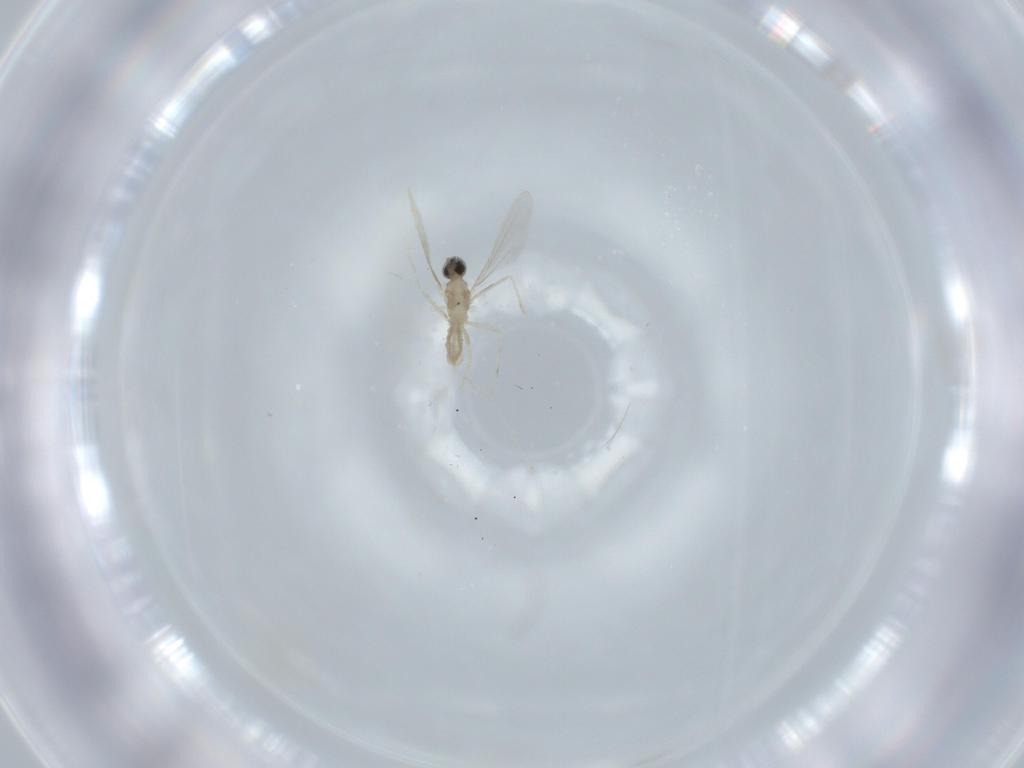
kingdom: Animalia
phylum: Arthropoda
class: Insecta
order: Diptera
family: Cecidomyiidae
